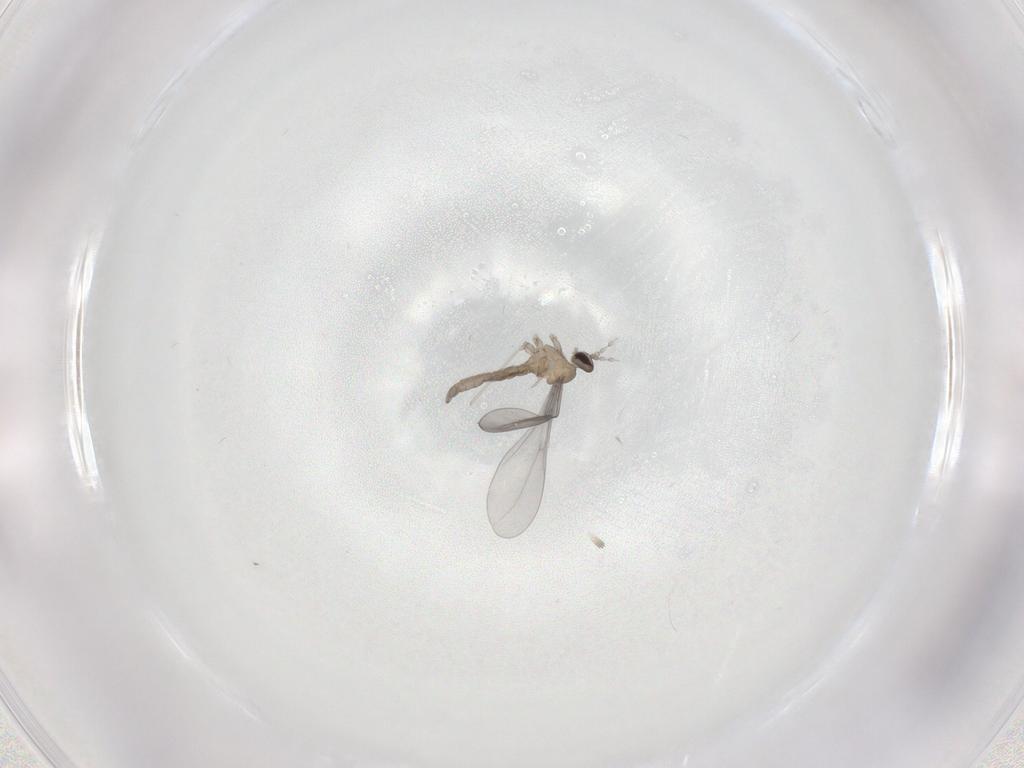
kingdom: Animalia
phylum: Arthropoda
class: Insecta
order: Diptera
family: Cecidomyiidae
